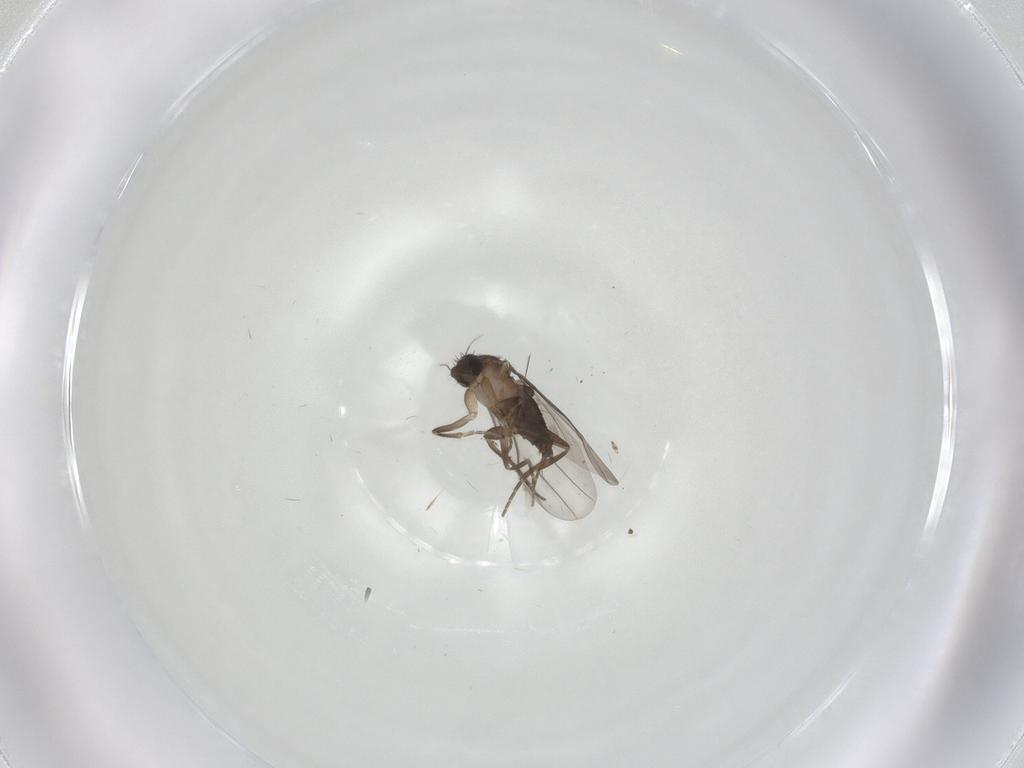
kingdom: Animalia
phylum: Arthropoda
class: Insecta
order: Diptera
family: Phoridae
